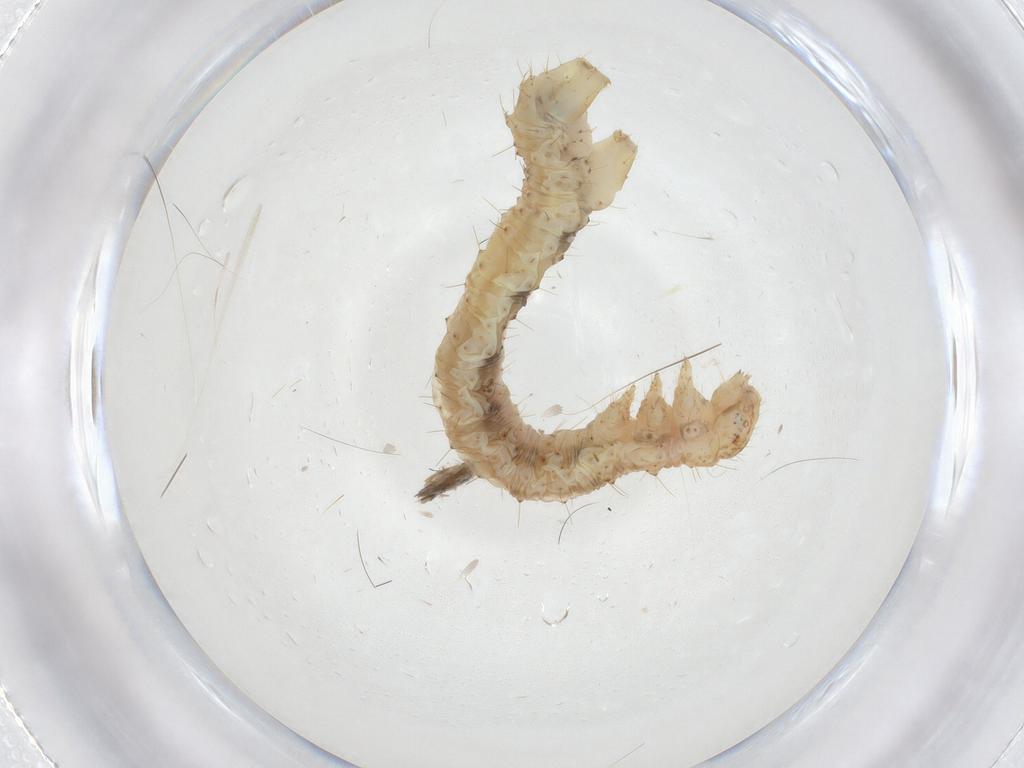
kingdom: Animalia
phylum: Arthropoda
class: Insecta
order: Lepidoptera
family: Geometridae
